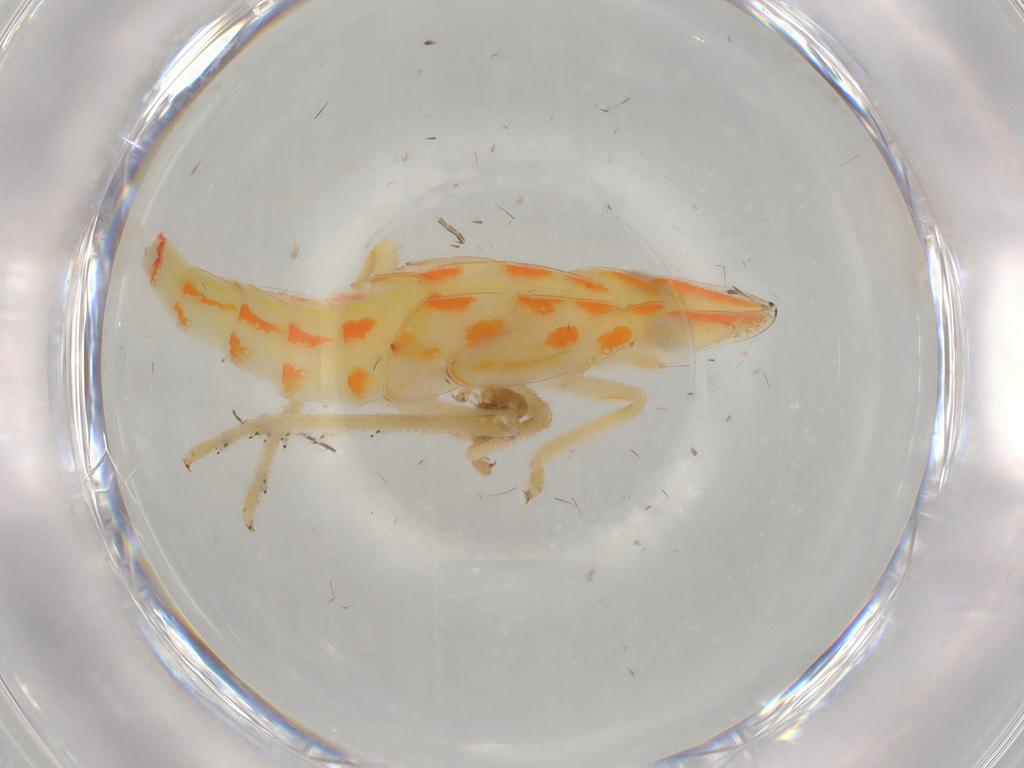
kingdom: Animalia
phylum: Arthropoda
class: Insecta
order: Hemiptera
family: Tropiduchidae
